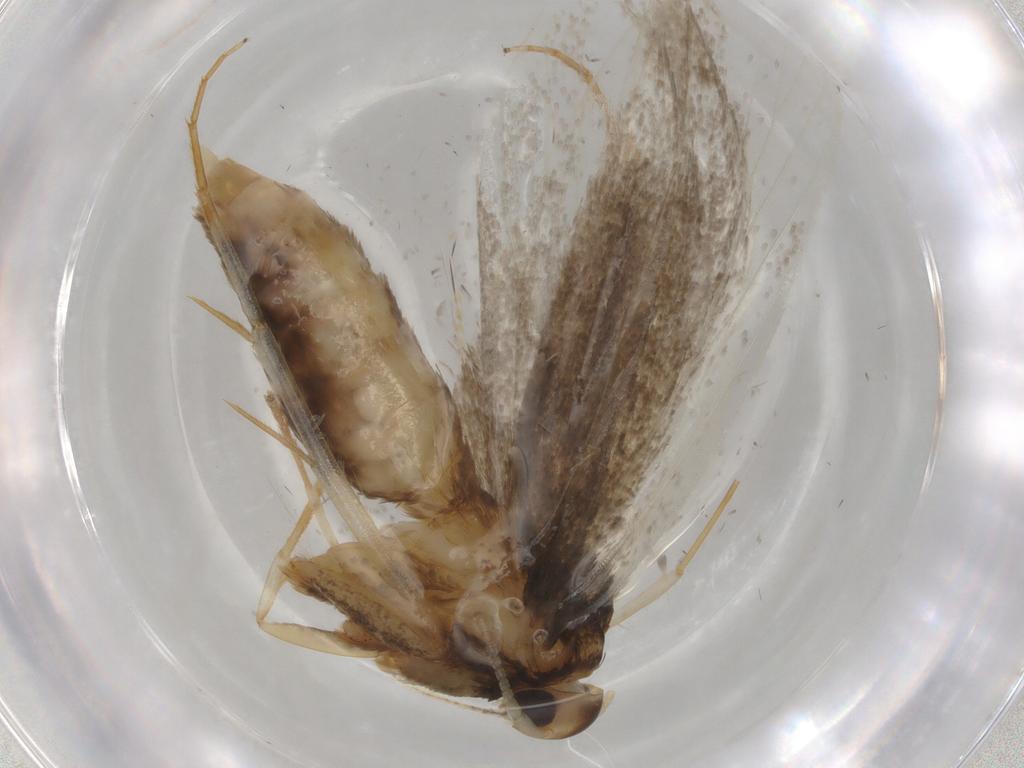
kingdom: Animalia
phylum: Arthropoda
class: Insecta
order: Lepidoptera
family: Lecithoceridae
